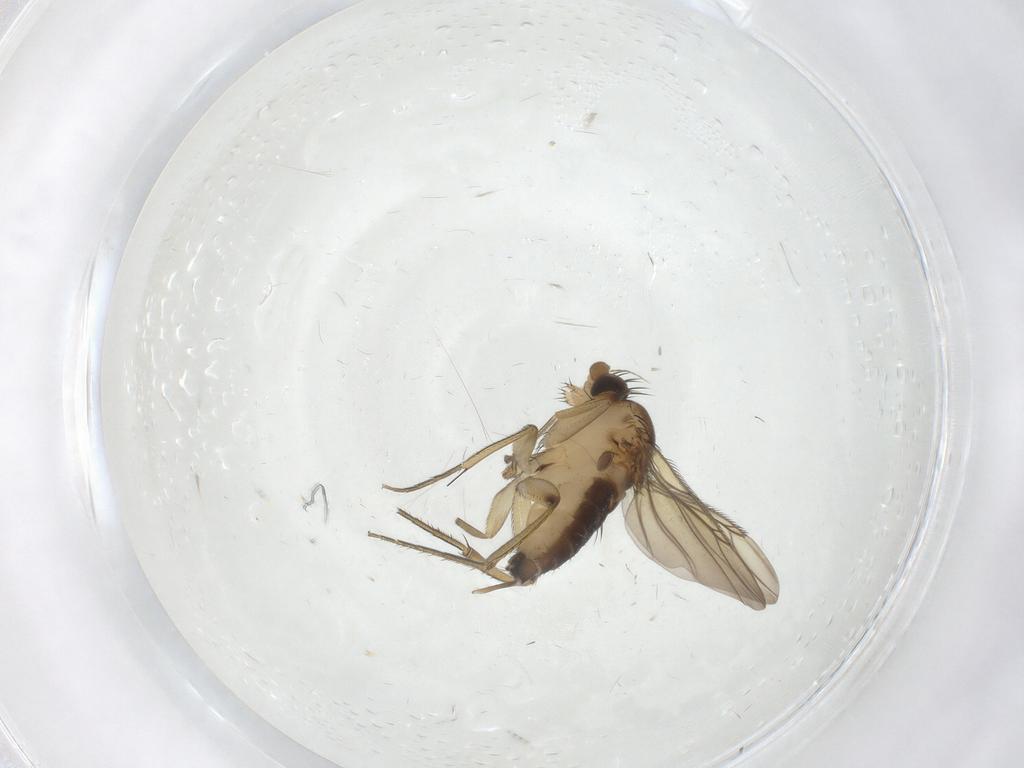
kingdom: Animalia
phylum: Arthropoda
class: Insecta
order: Diptera
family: Phoridae
